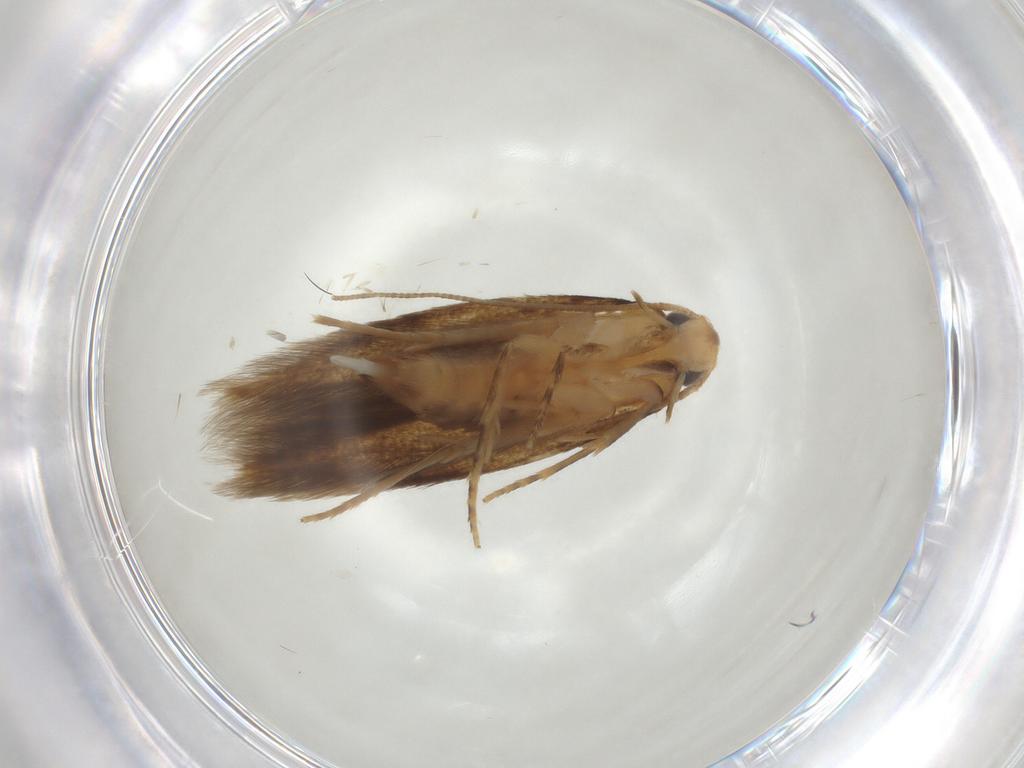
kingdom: Animalia
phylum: Arthropoda
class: Insecta
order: Lepidoptera
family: Tineidae
